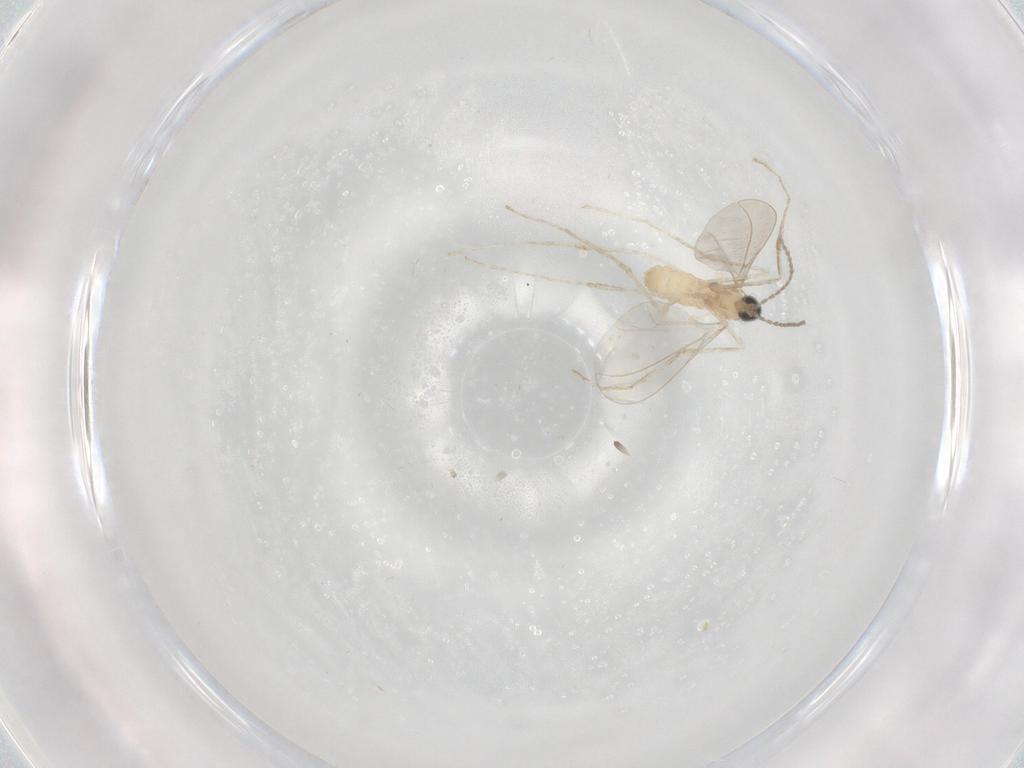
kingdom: Animalia
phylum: Arthropoda
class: Insecta
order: Diptera
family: Cecidomyiidae
